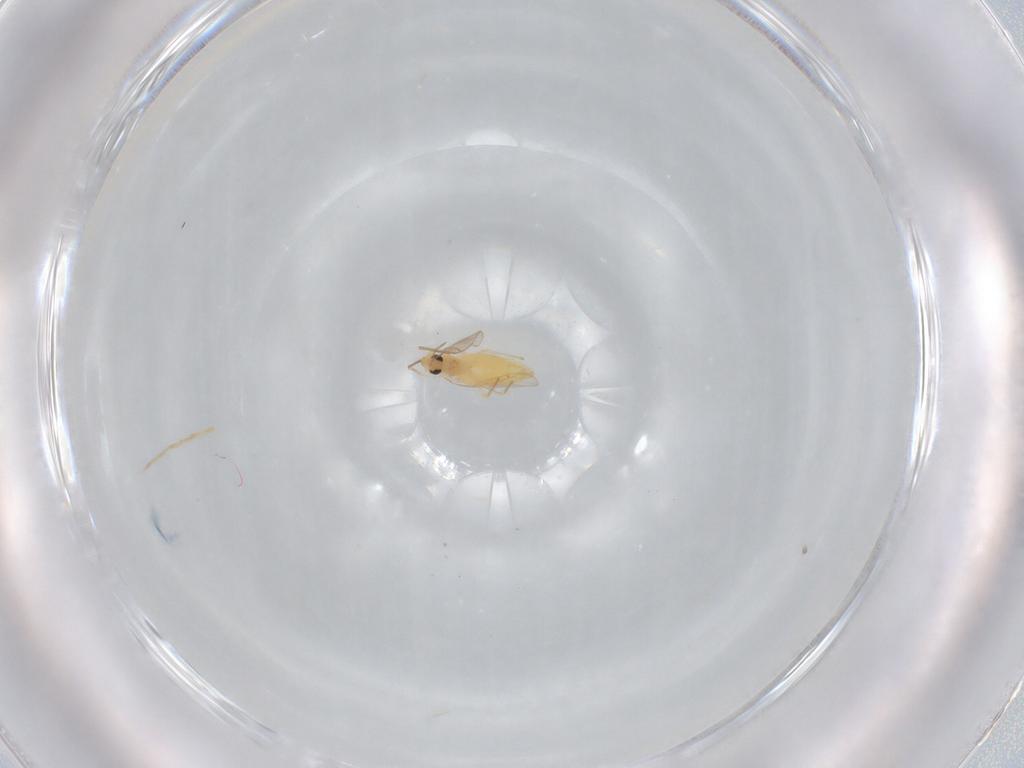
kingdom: Animalia
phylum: Arthropoda
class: Insecta
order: Diptera
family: Chironomidae
